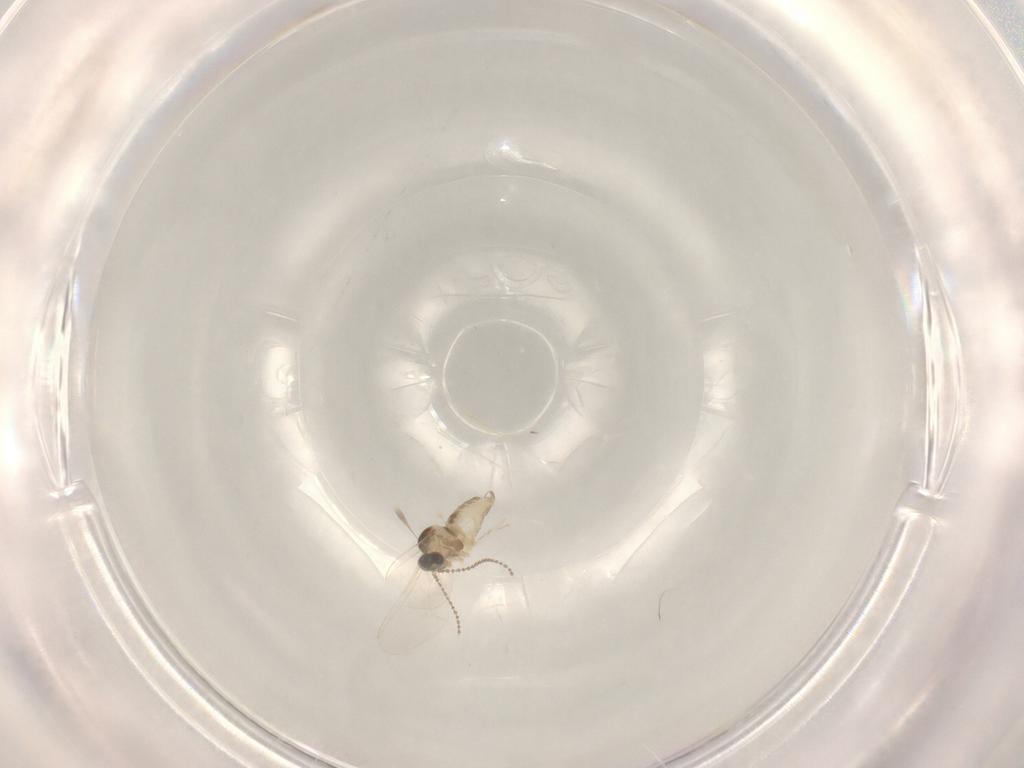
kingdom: Animalia
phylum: Arthropoda
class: Insecta
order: Diptera
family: Cecidomyiidae
